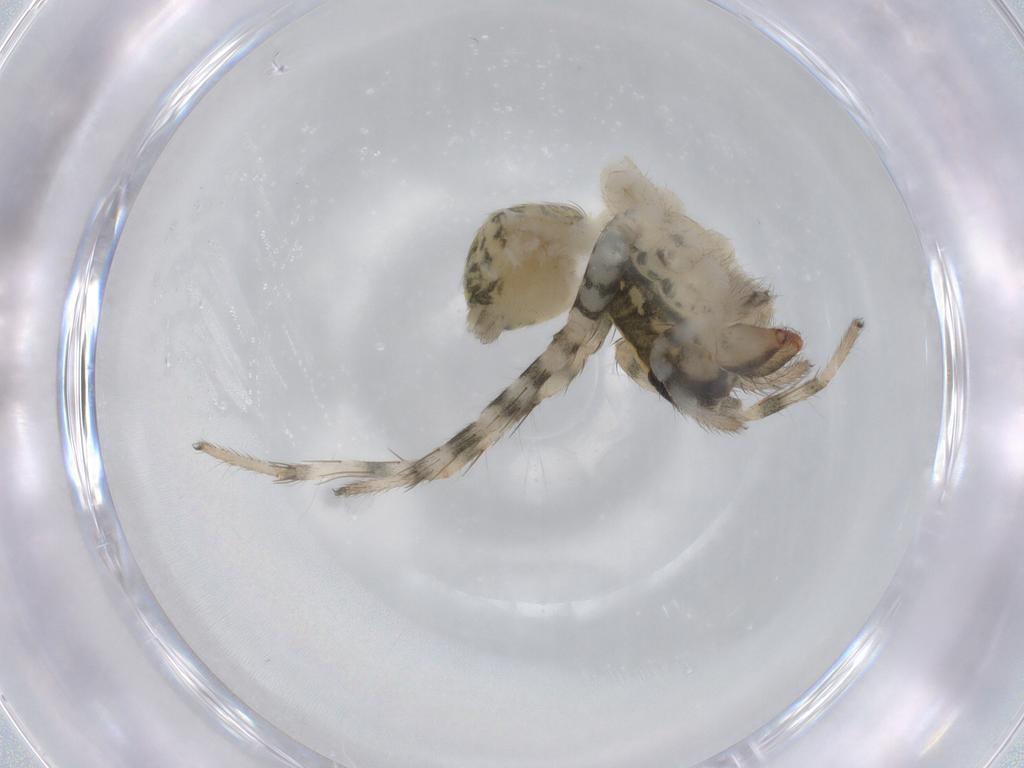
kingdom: Animalia
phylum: Arthropoda
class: Arachnida
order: Araneae
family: Lycosidae
